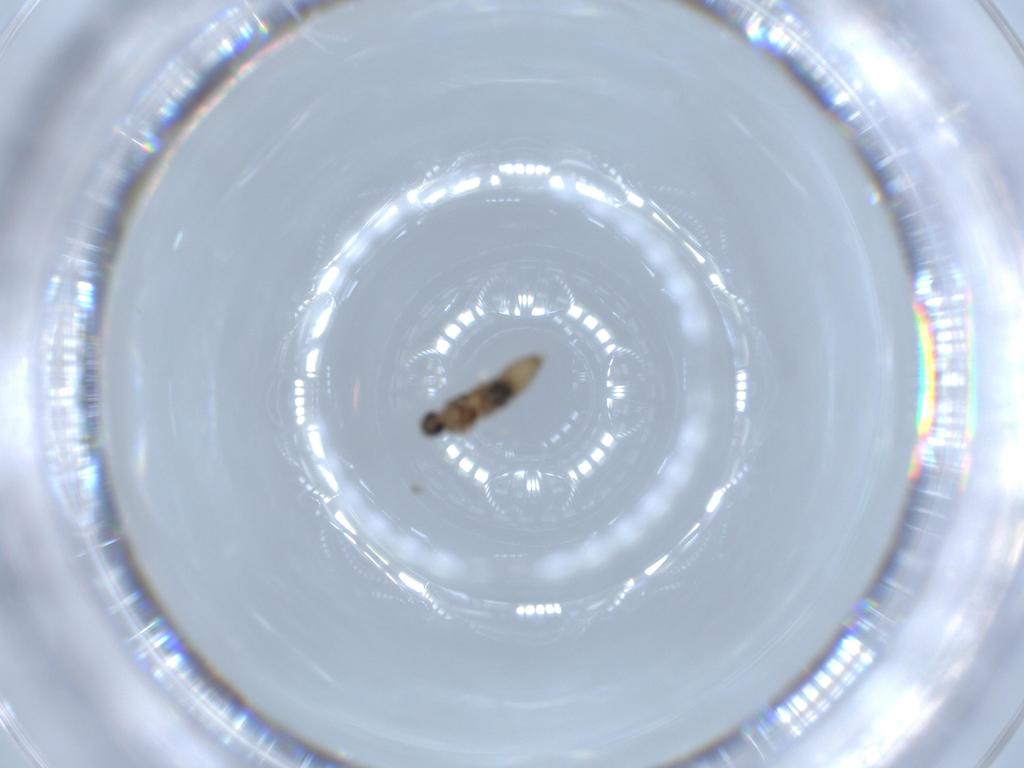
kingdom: Animalia
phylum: Arthropoda
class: Insecta
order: Diptera
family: Cecidomyiidae
